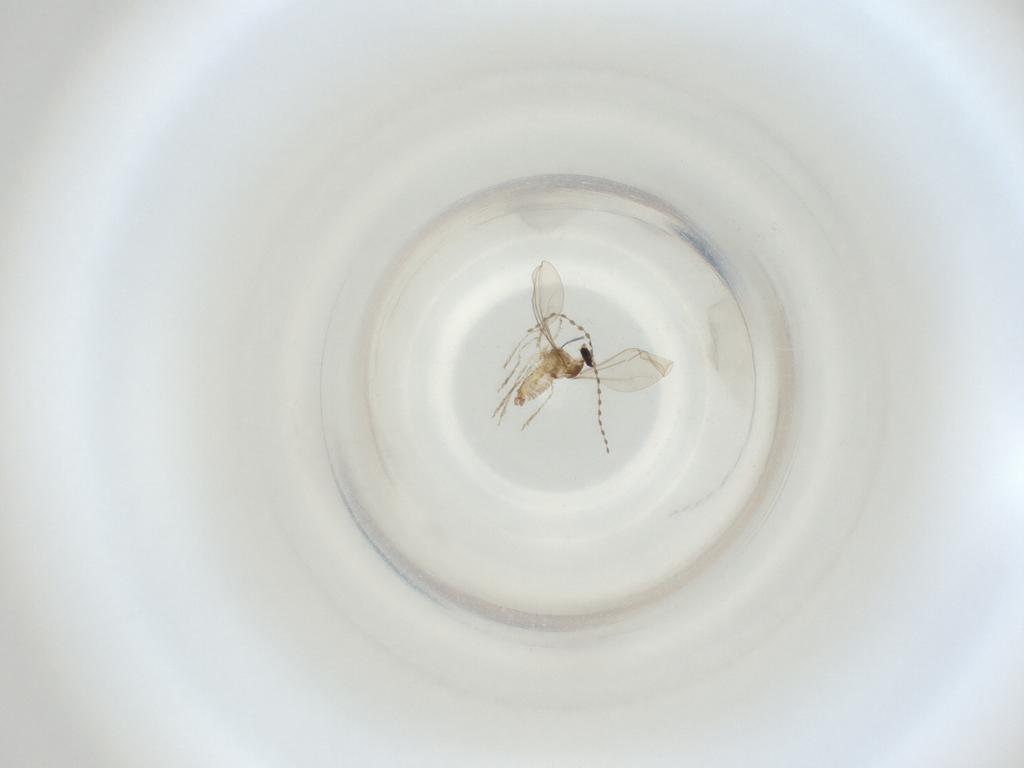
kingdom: Animalia
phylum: Arthropoda
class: Insecta
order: Diptera
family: Cecidomyiidae
